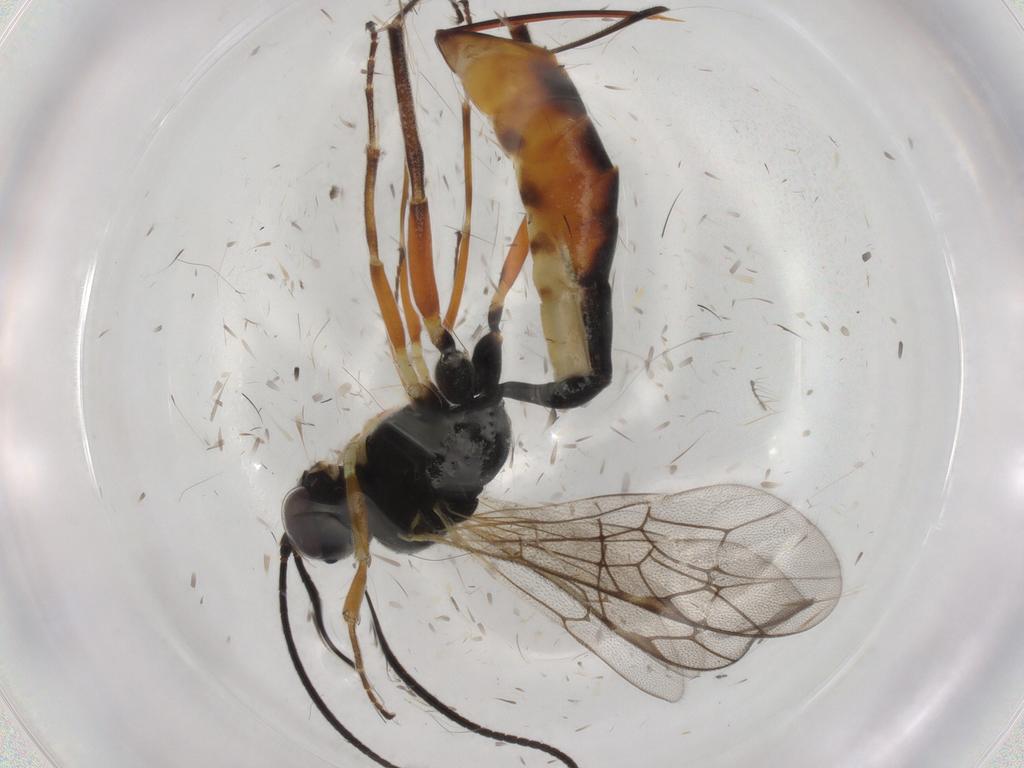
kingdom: Animalia
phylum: Arthropoda
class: Insecta
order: Hymenoptera
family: Ichneumonidae
